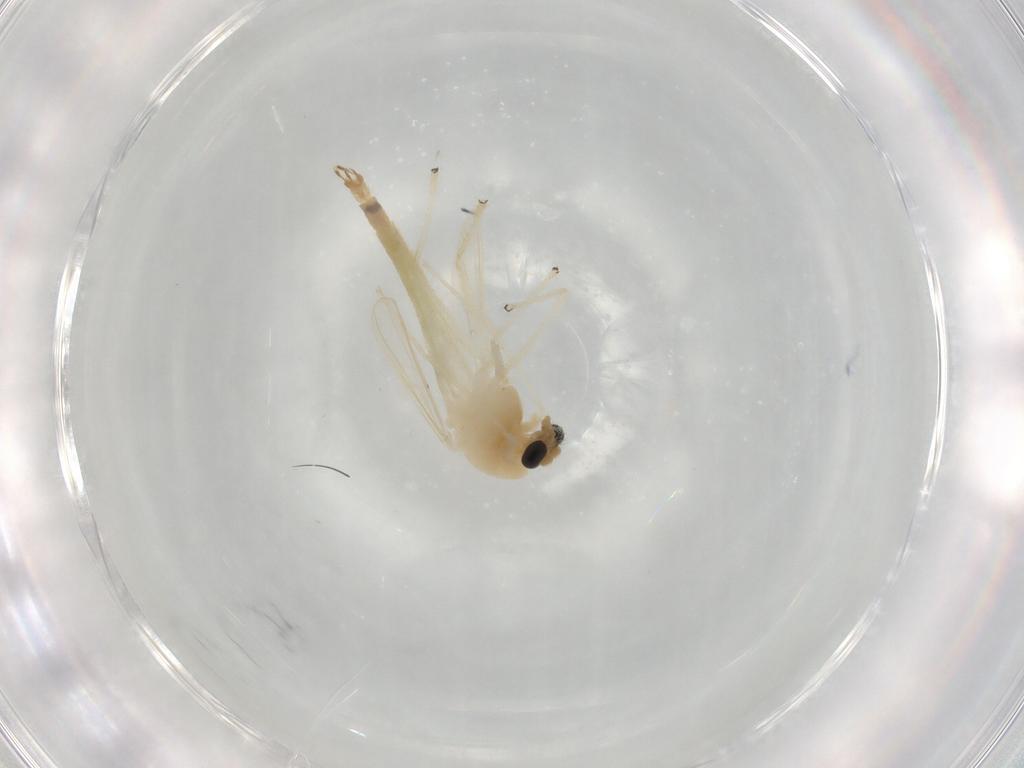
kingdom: Animalia
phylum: Arthropoda
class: Insecta
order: Diptera
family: Chironomidae
